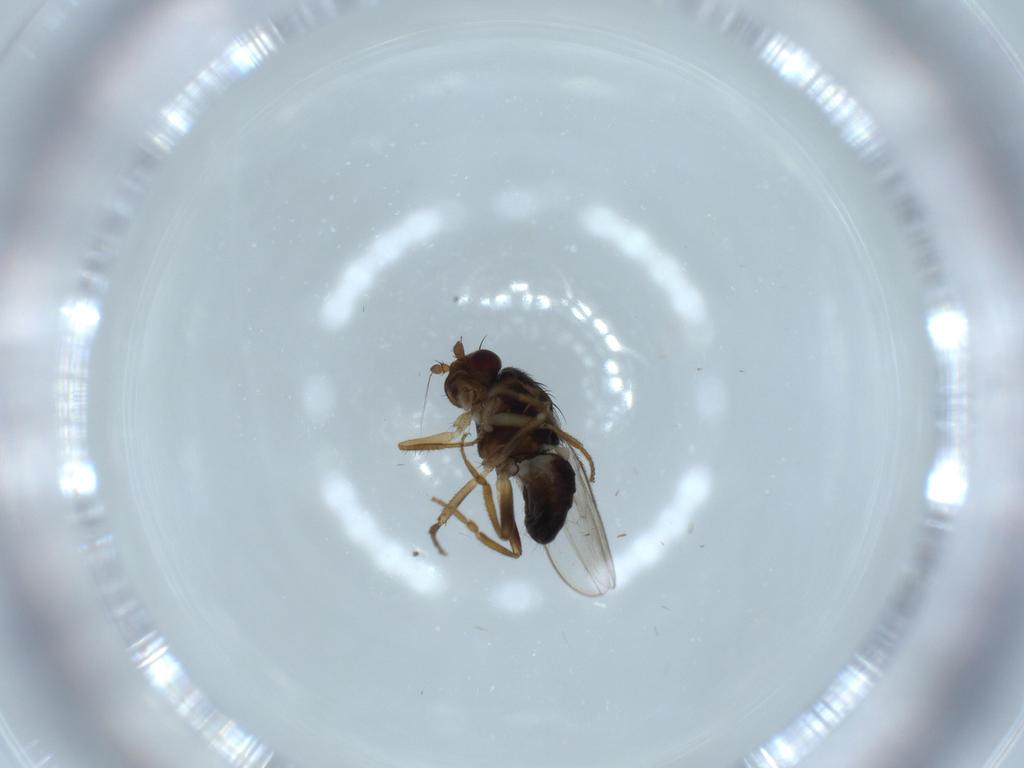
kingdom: Animalia
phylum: Arthropoda
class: Insecta
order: Diptera
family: Sphaeroceridae
